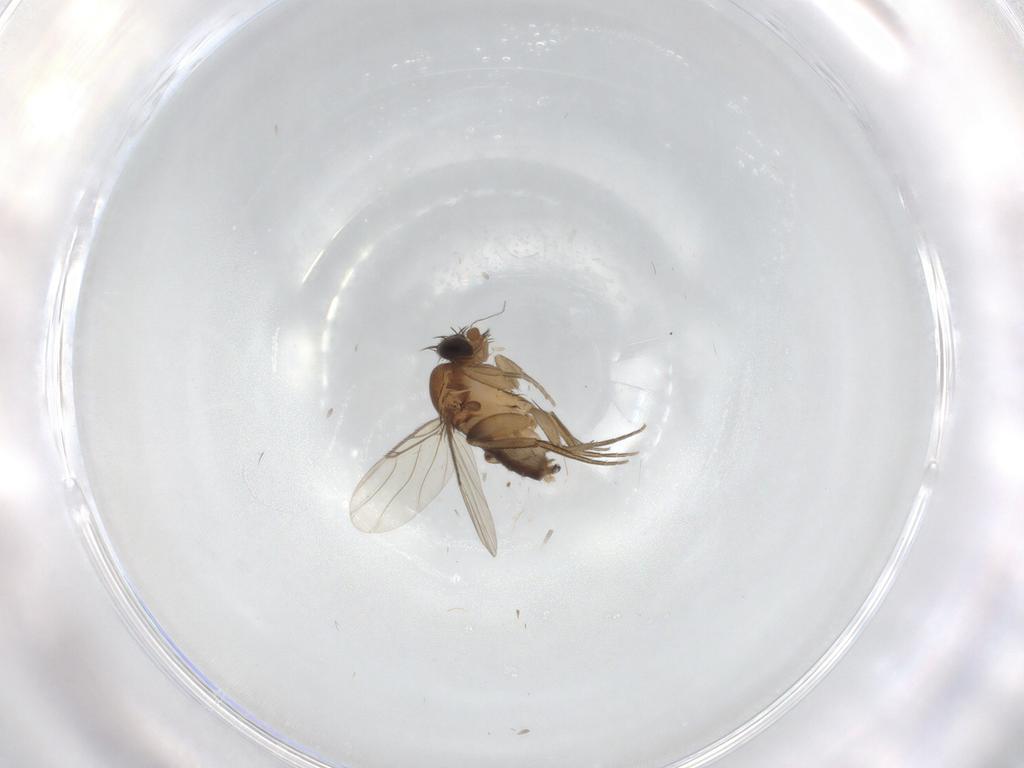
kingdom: Animalia
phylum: Arthropoda
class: Insecta
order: Diptera
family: Phoridae
